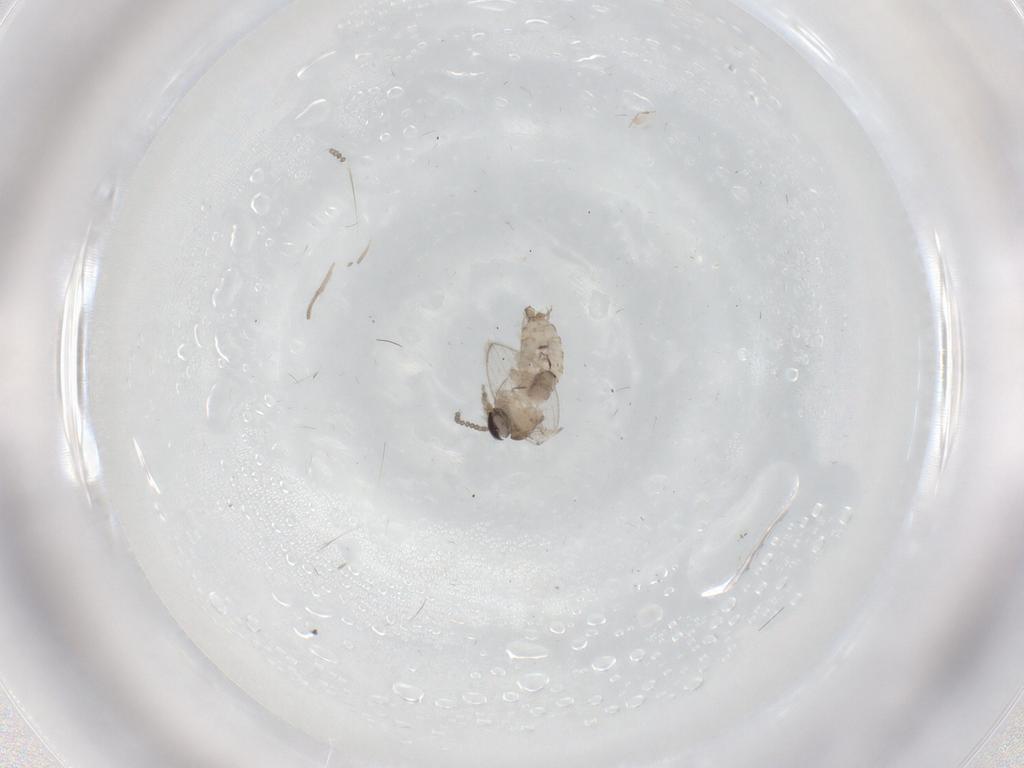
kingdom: Animalia
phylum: Arthropoda
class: Insecta
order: Diptera
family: Psychodidae
